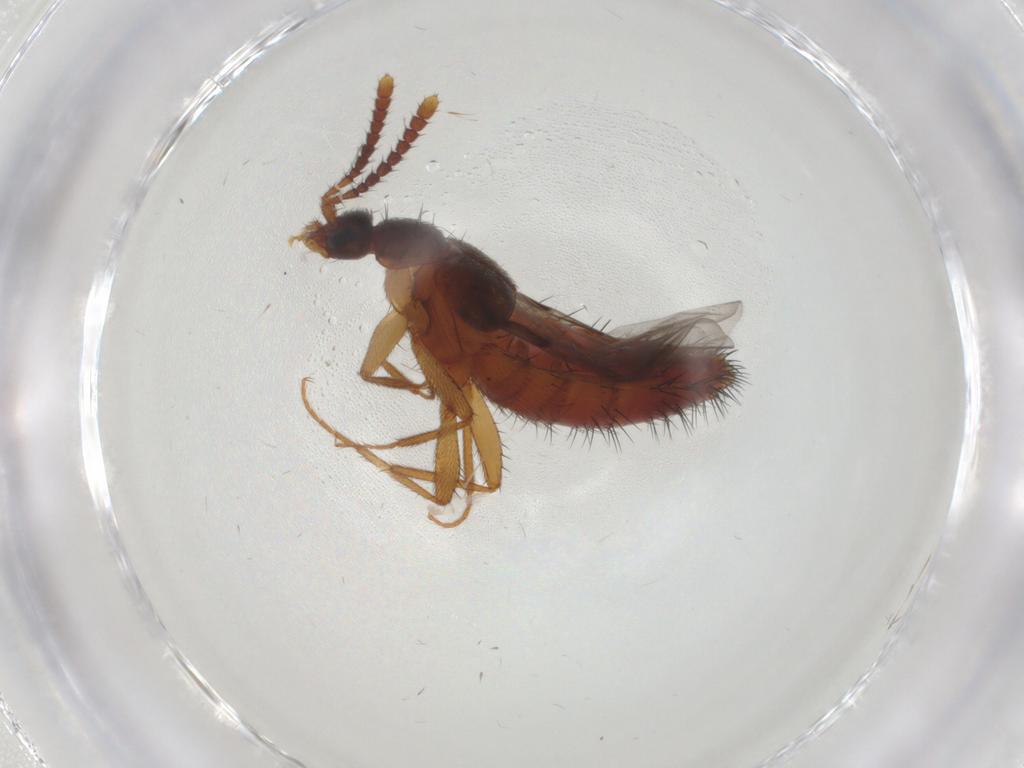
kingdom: Animalia
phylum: Arthropoda
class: Insecta
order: Coleoptera
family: Staphylinidae
